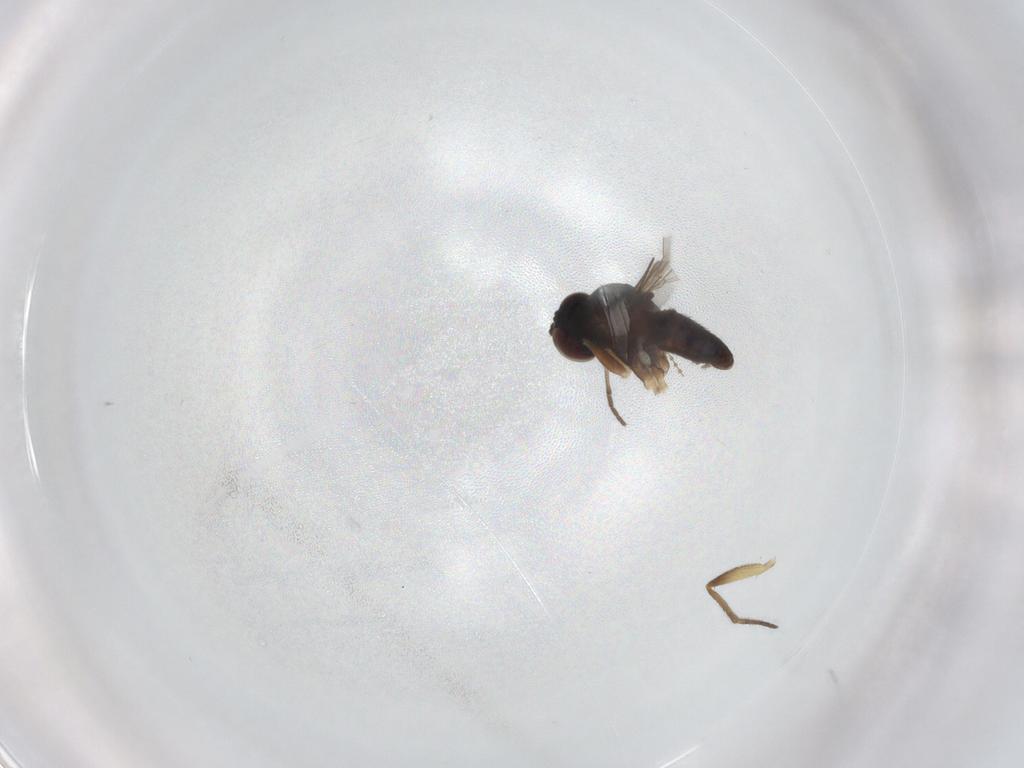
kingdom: Animalia
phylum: Arthropoda
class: Insecta
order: Diptera
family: Dolichopodidae
